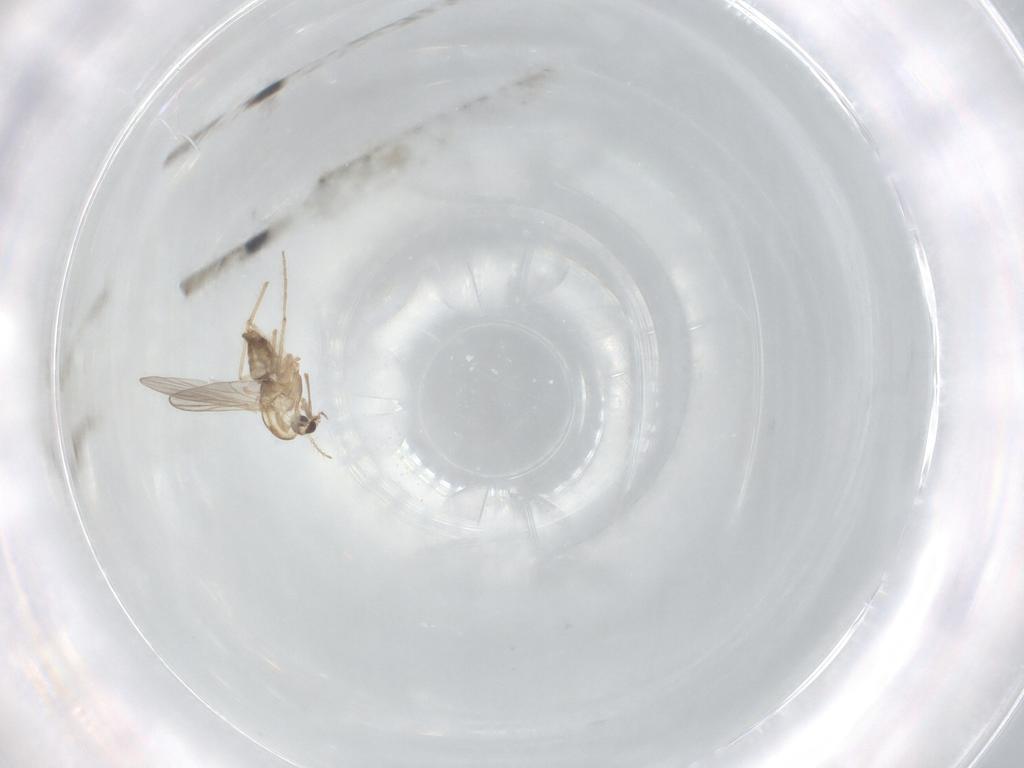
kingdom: Animalia
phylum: Arthropoda
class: Insecta
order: Diptera
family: Chironomidae
